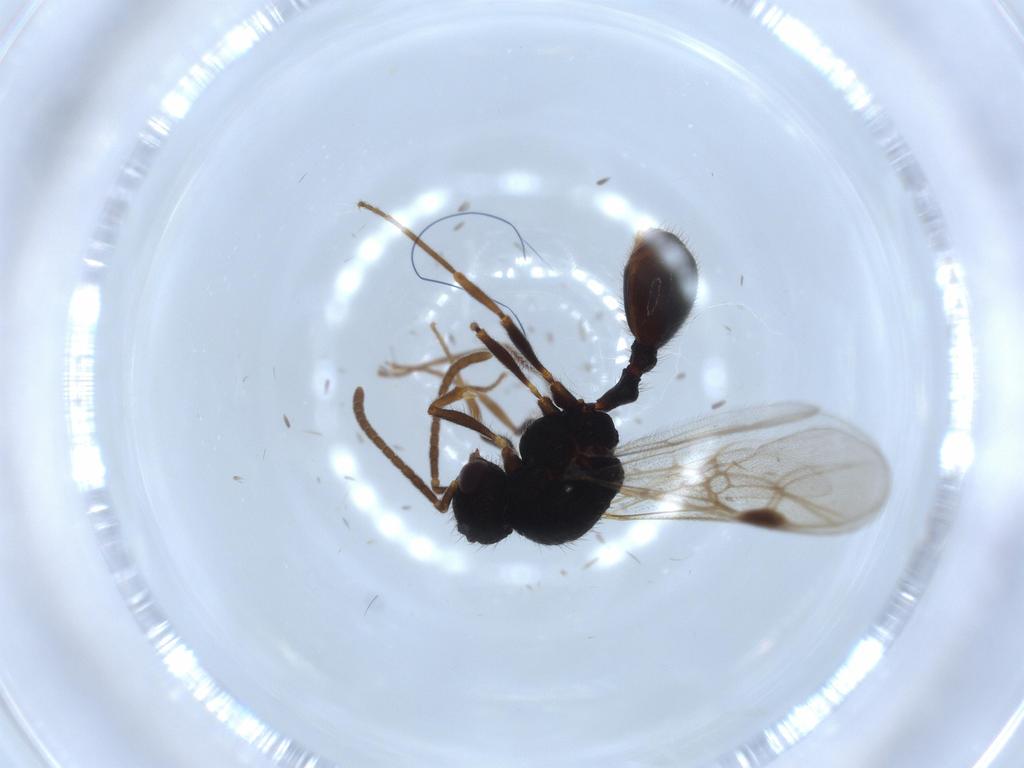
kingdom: Animalia
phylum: Arthropoda
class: Insecta
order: Hymenoptera
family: Formicidae
